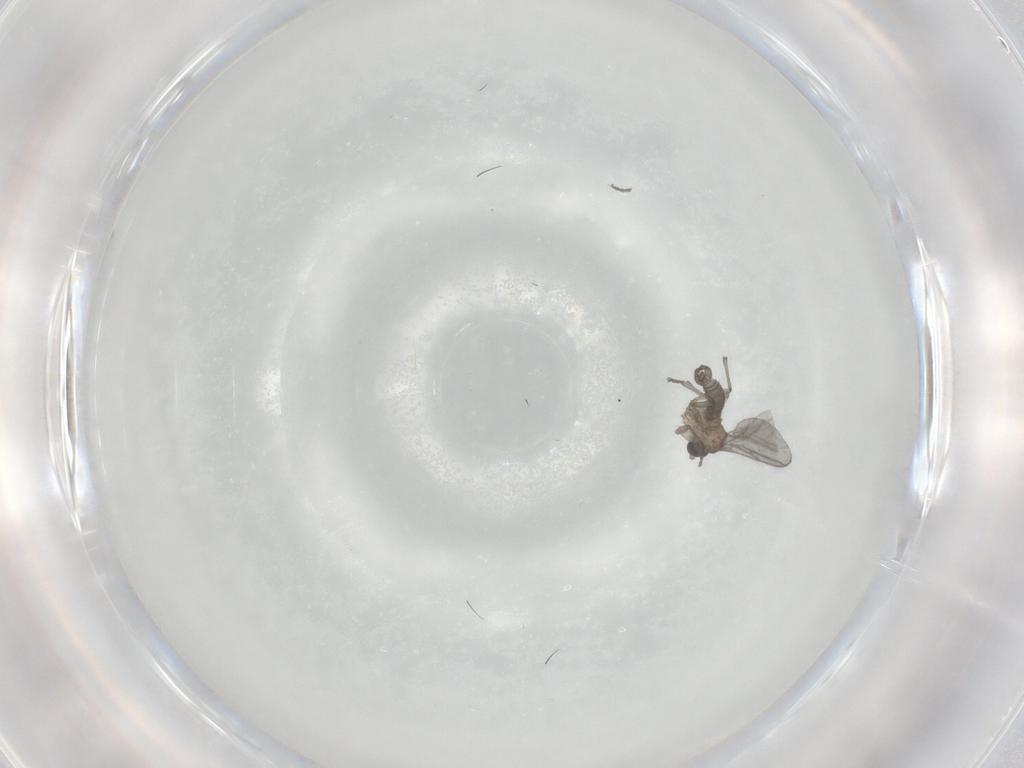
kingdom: Animalia
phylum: Arthropoda
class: Insecta
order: Diptera
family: Sciaridae
